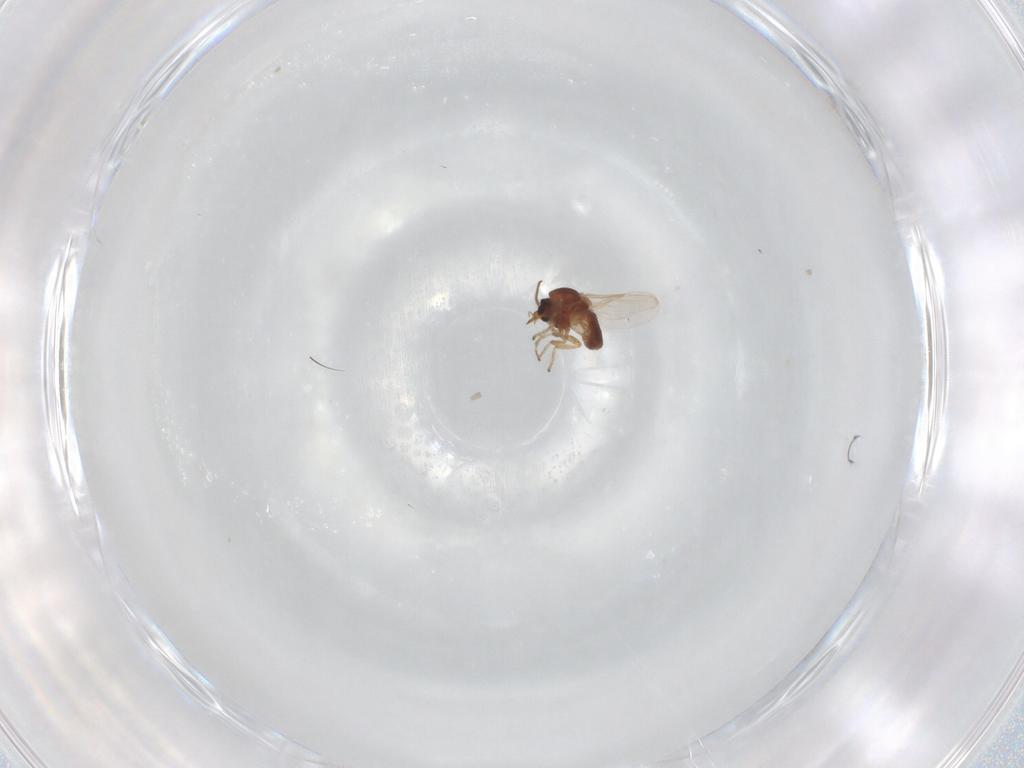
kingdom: Animalia
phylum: Arthropoda
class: Insecta
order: Diptera
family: Ceratopogonidae
